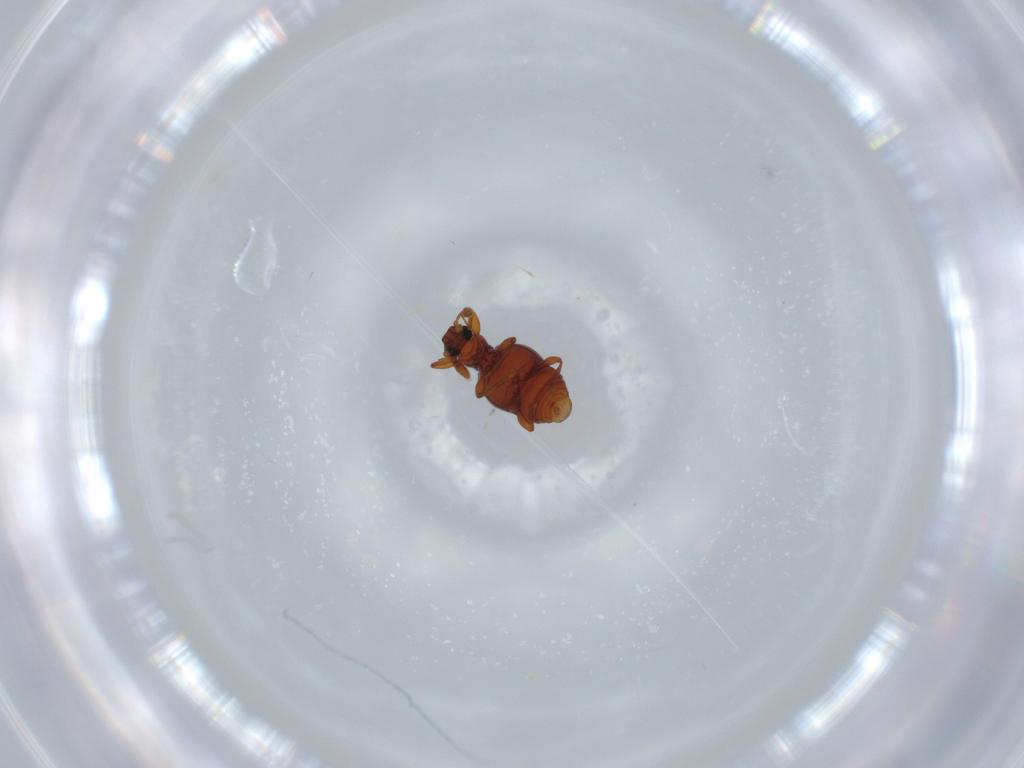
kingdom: Animalia
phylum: Arthropoda
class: Insecta
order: Coleoptera
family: Staphylinidae
